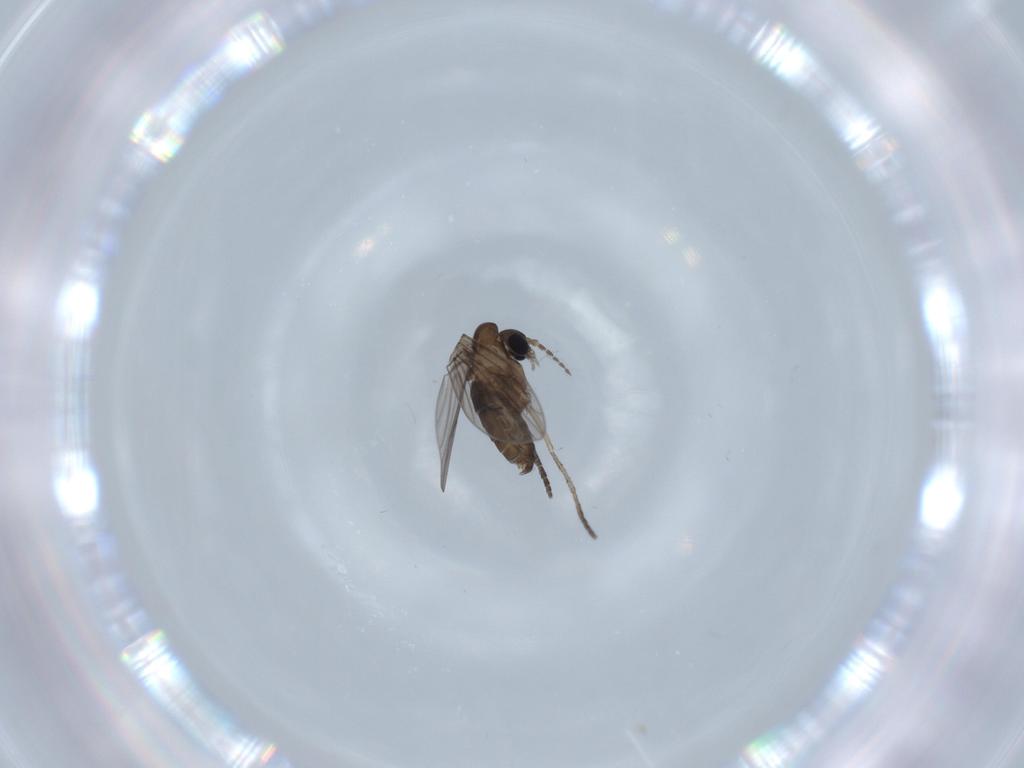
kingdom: Animalia
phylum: Arthropoda
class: Insecta
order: Diptera
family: Psychodidae
